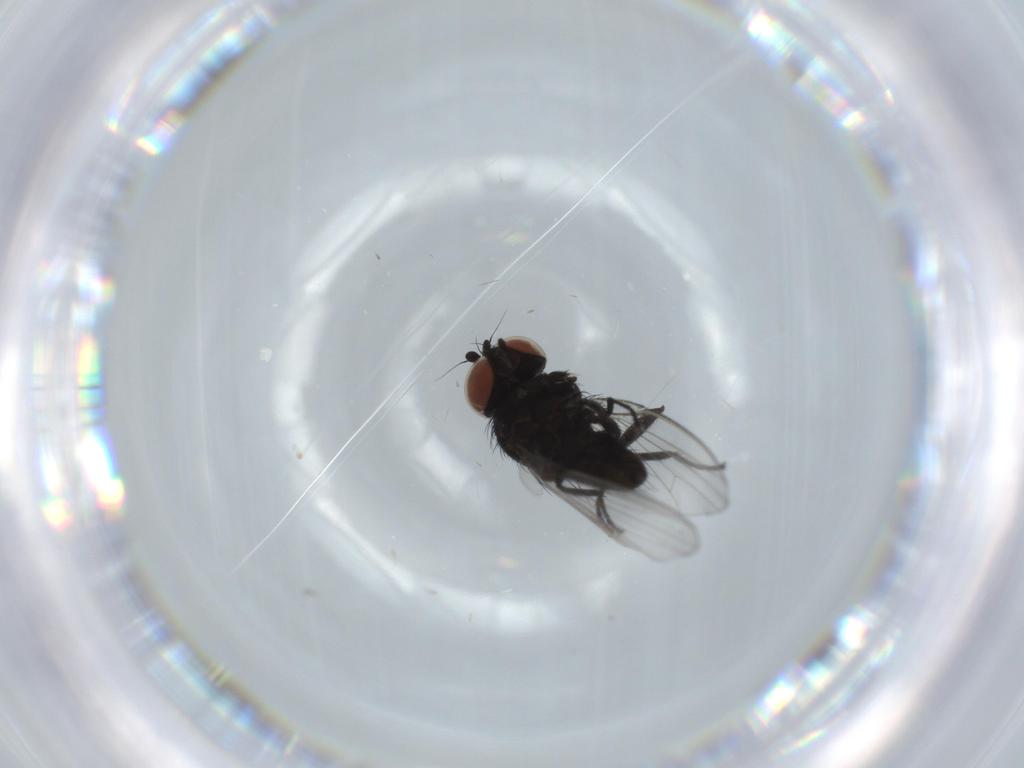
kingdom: Animalia
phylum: Arthropoda
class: Insecta
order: Diptera
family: Milichiidae
